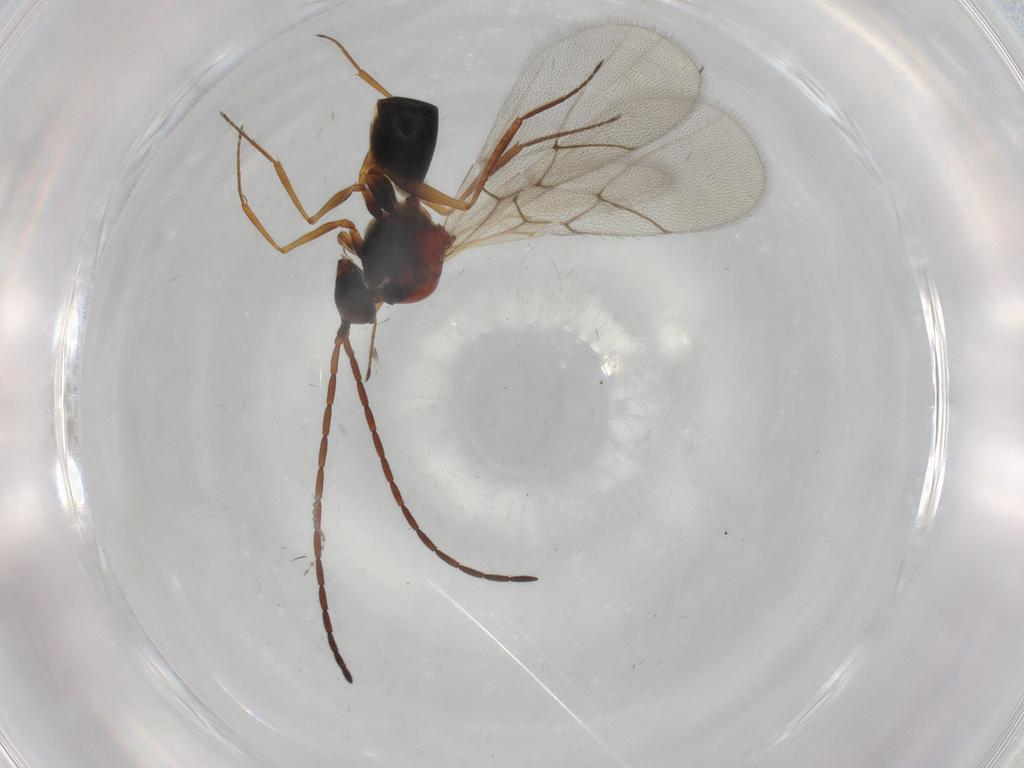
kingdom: Animalia
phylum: Arthropoda
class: Insecta
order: Hymenoptera
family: Figitidae
